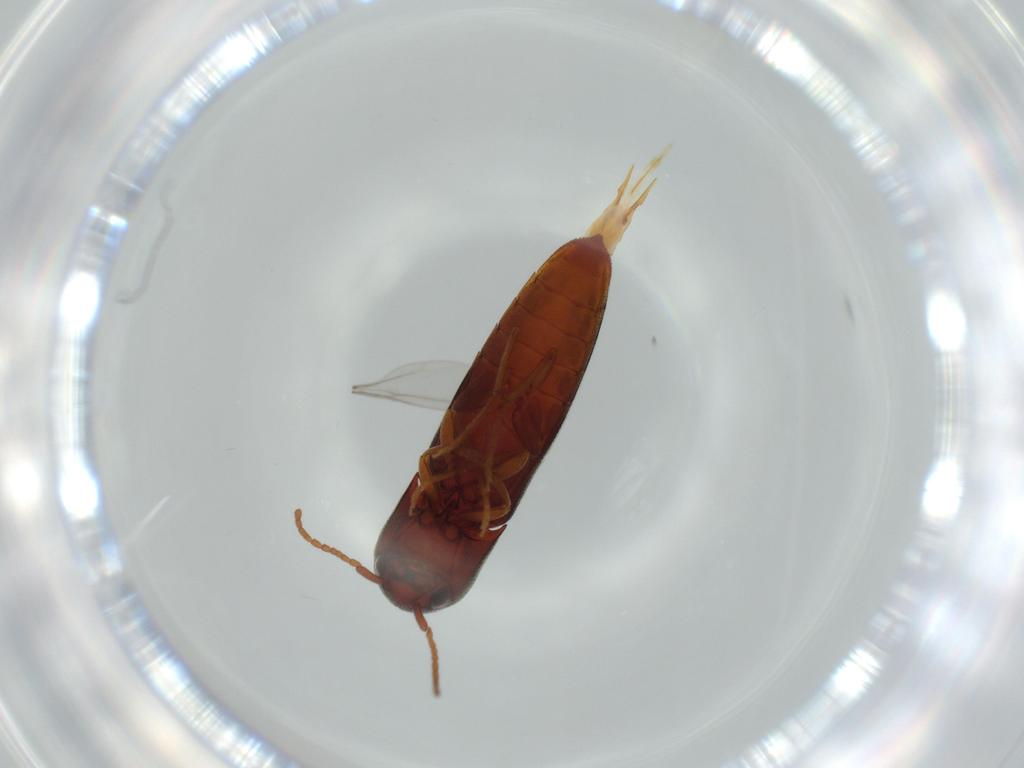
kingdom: Animalia
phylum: Arthropoda
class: Insecta
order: Coleoptera
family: Eucnemidae
